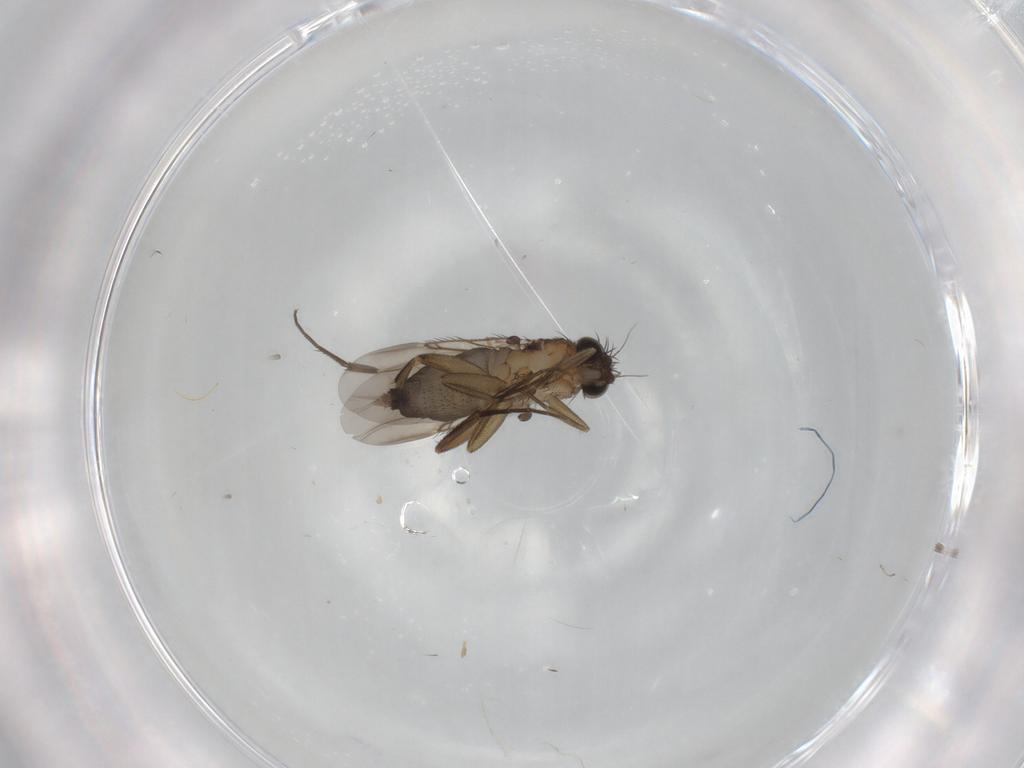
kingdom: Animalia
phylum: Arthropoda
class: Insecta
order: Diptera
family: Phoridae
